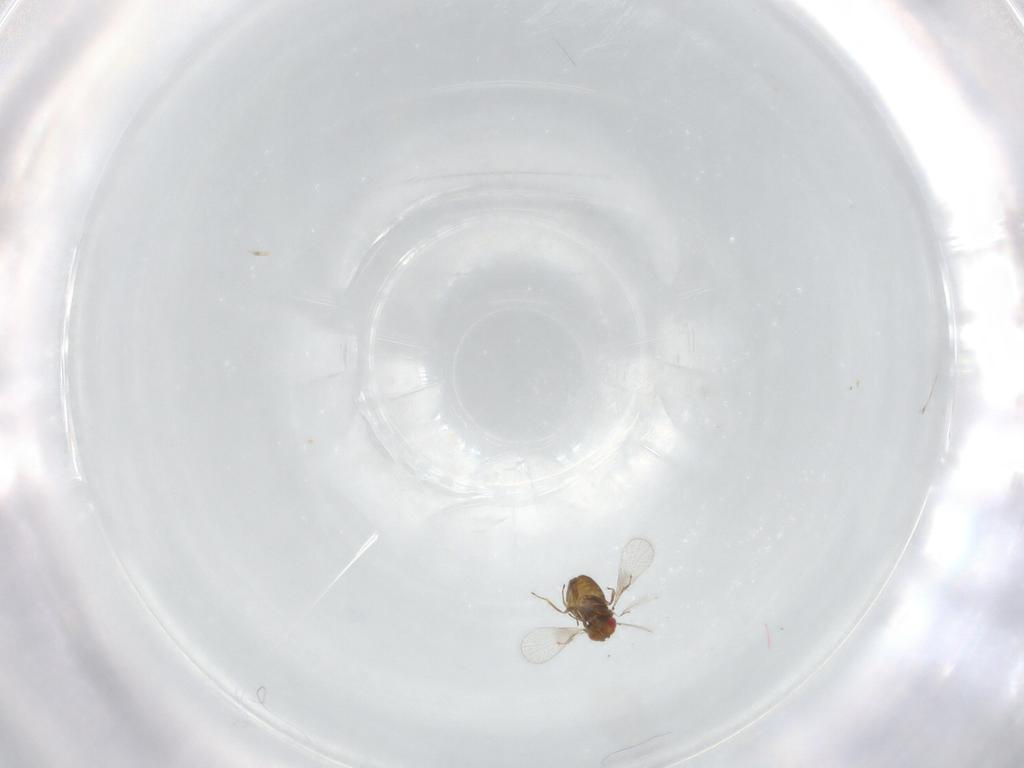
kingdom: Animalia
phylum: Arthropoda
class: Insecta
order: Hymenoptera
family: Trichogrammatidae
